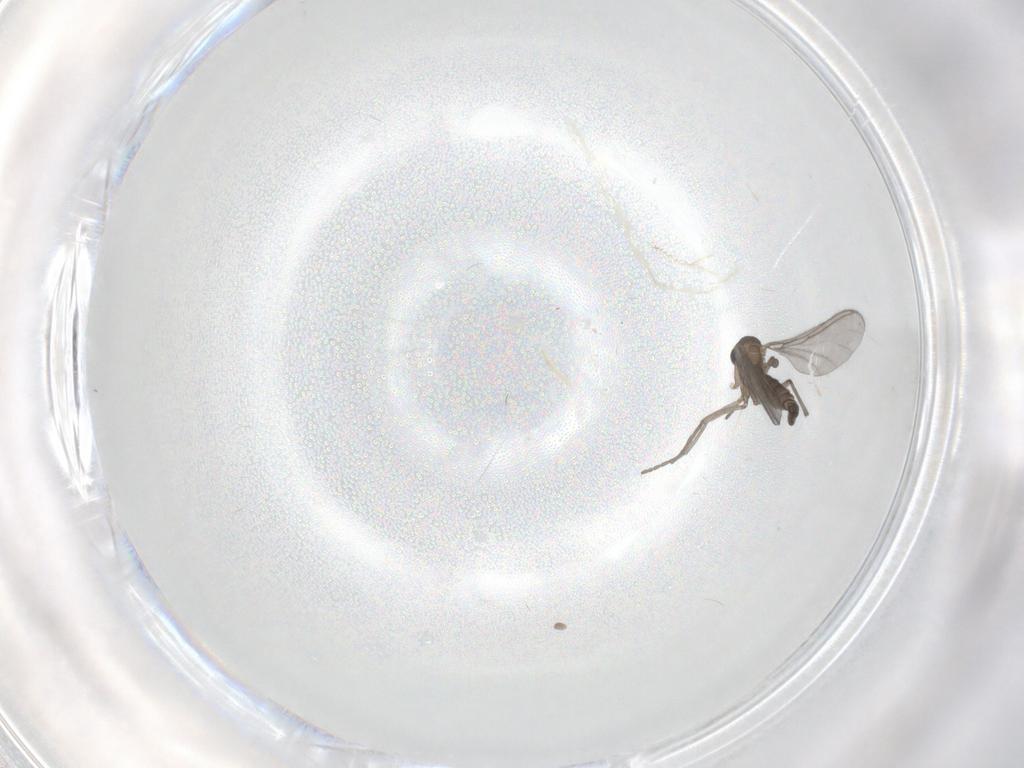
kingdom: Animalia
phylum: Arthropoda
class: Insecta
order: Diptera
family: Sciaridae
